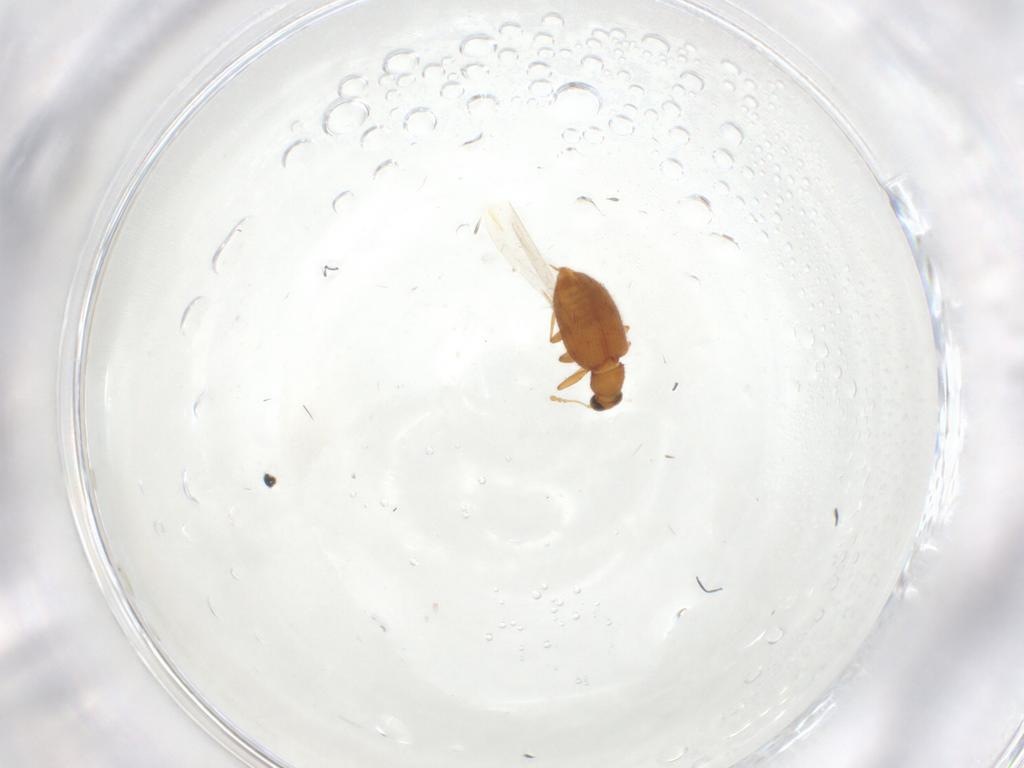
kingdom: Animalia
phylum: Arthropoda
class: Insecta
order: Coleoptera
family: Latridiidae
